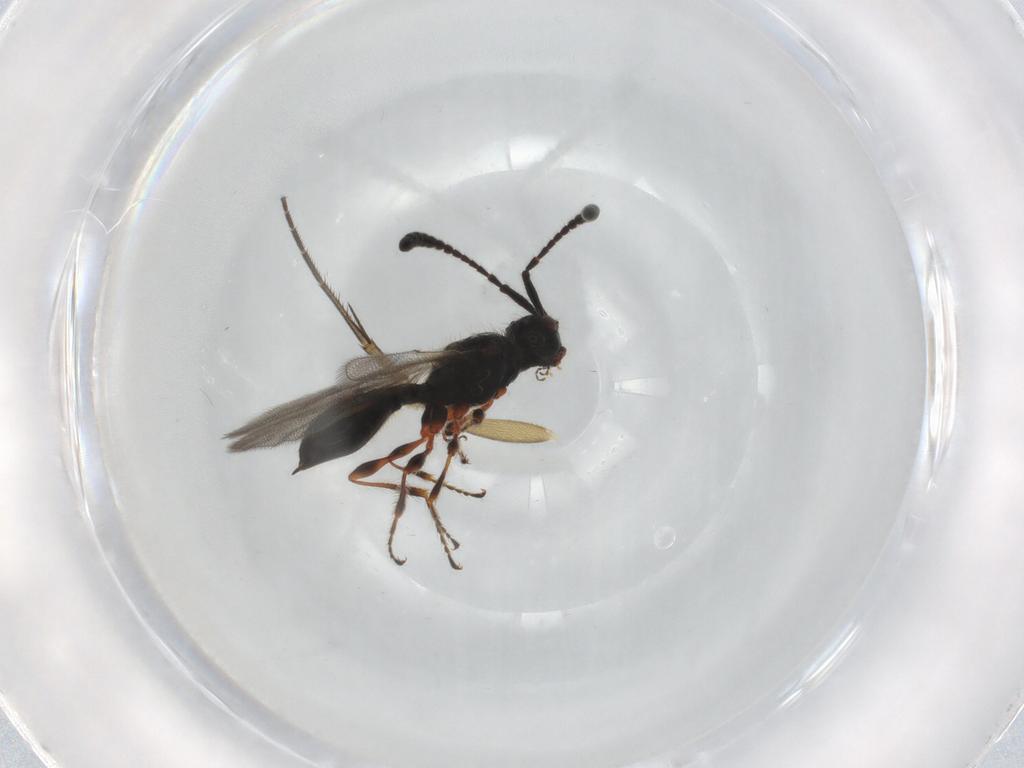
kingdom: Animalia
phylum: Arthropoda
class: Insecta
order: Hymenoptera
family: Diapriidae
